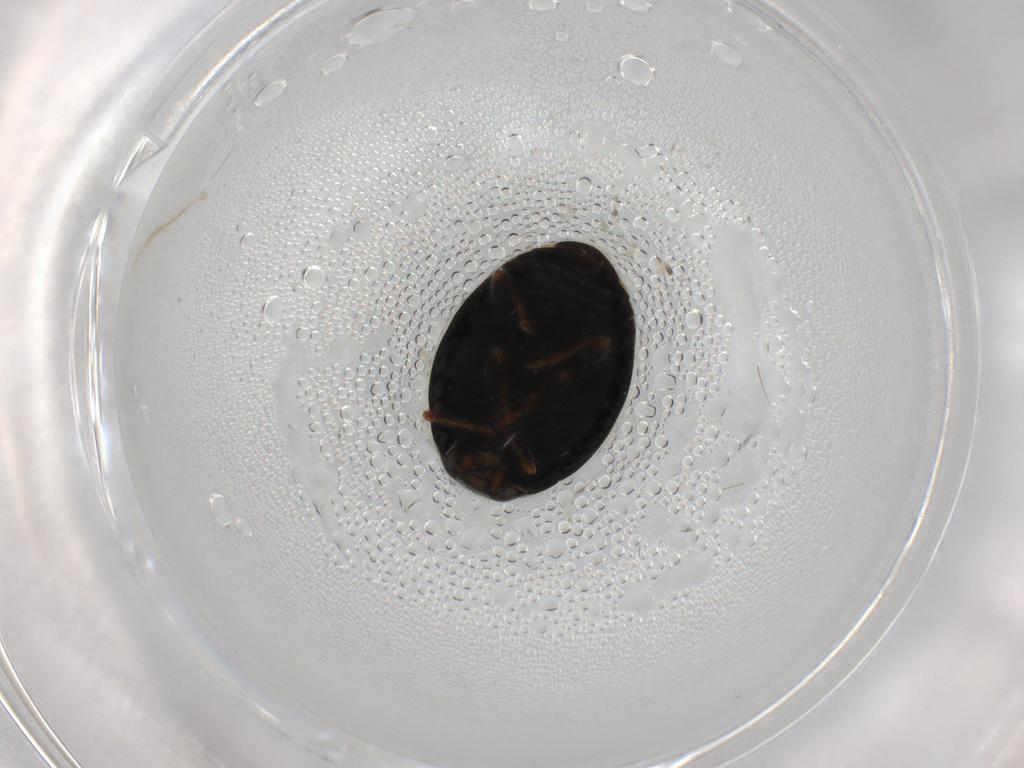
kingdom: Animalia
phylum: Arthropoda
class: Insecta
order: Coleoptera
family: Coccinellidae
